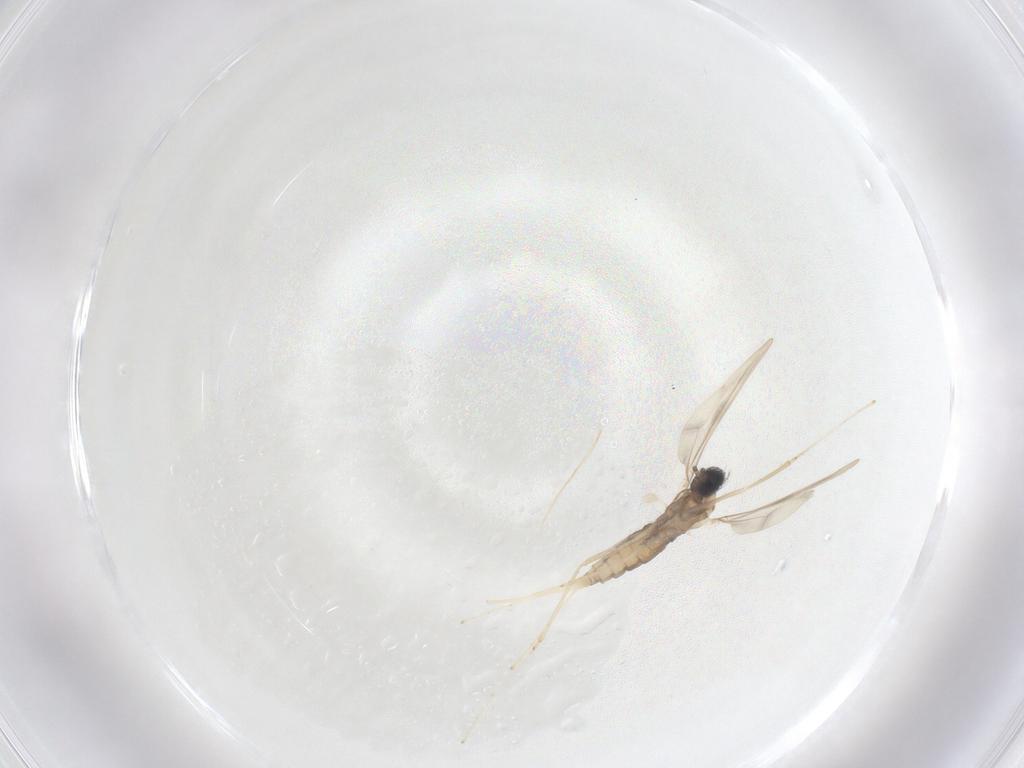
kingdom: Animalia
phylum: Arthropoda
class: Insecta
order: Diptera
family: Cecidomyiidae
